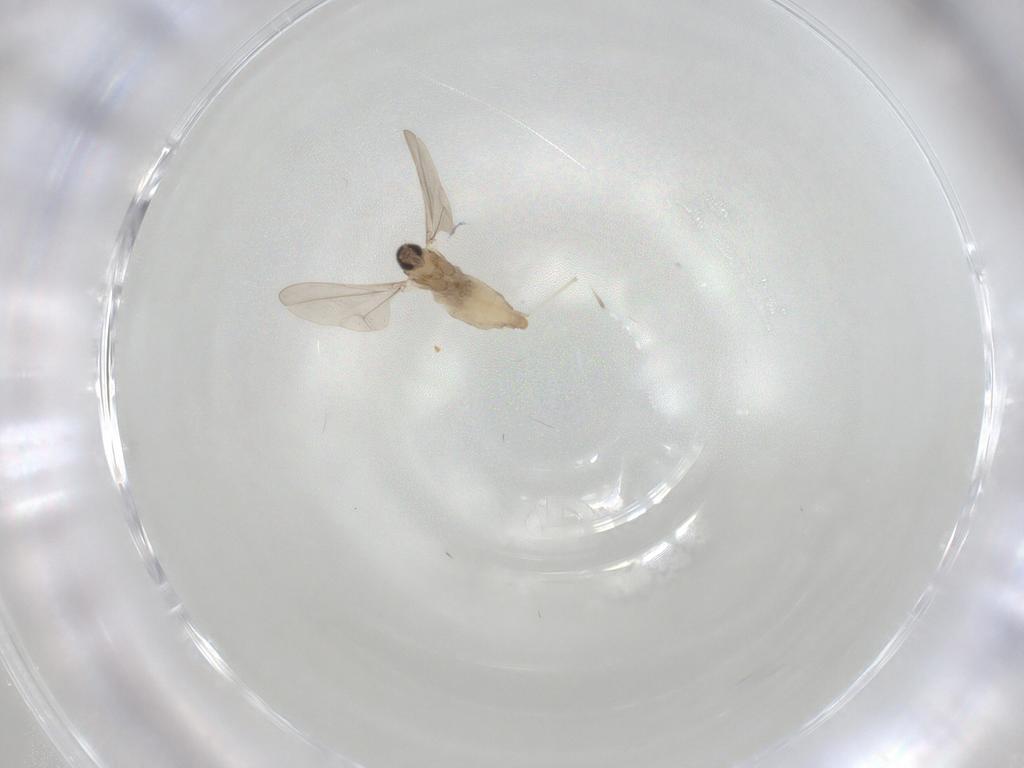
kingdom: Animalia
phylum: Arthropoda
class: Insecta
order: Diptera
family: Cecidomyiidae
